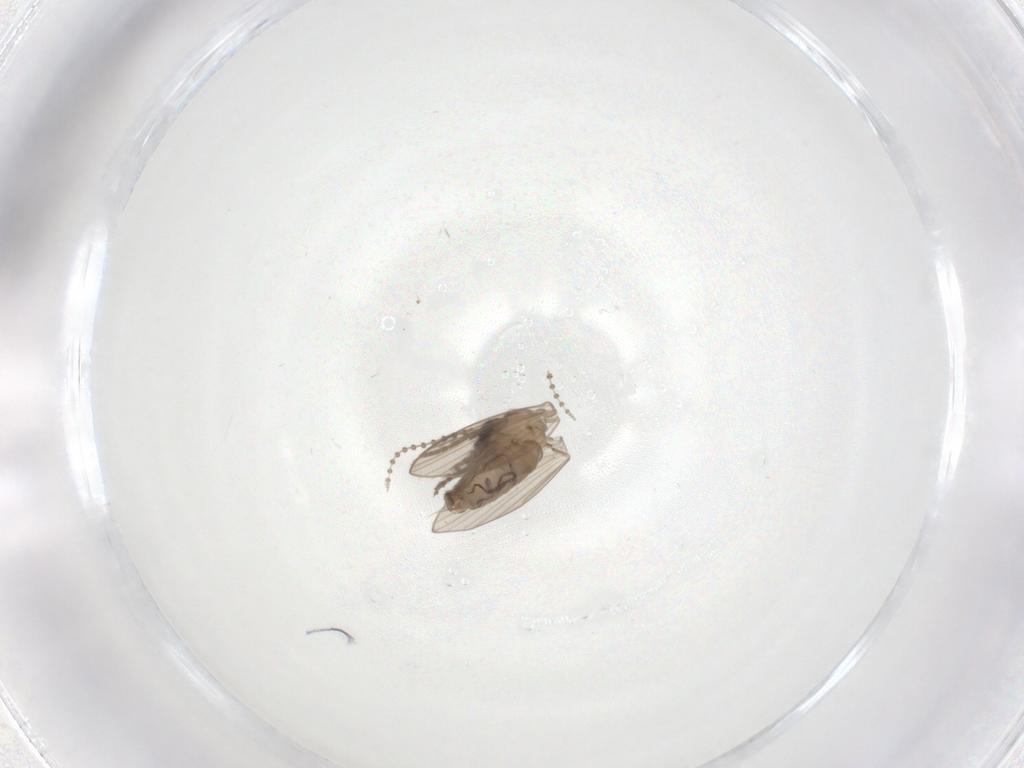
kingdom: Animalia
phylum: Arthropoda
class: Insecta
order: Diptera
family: Psychodidae
